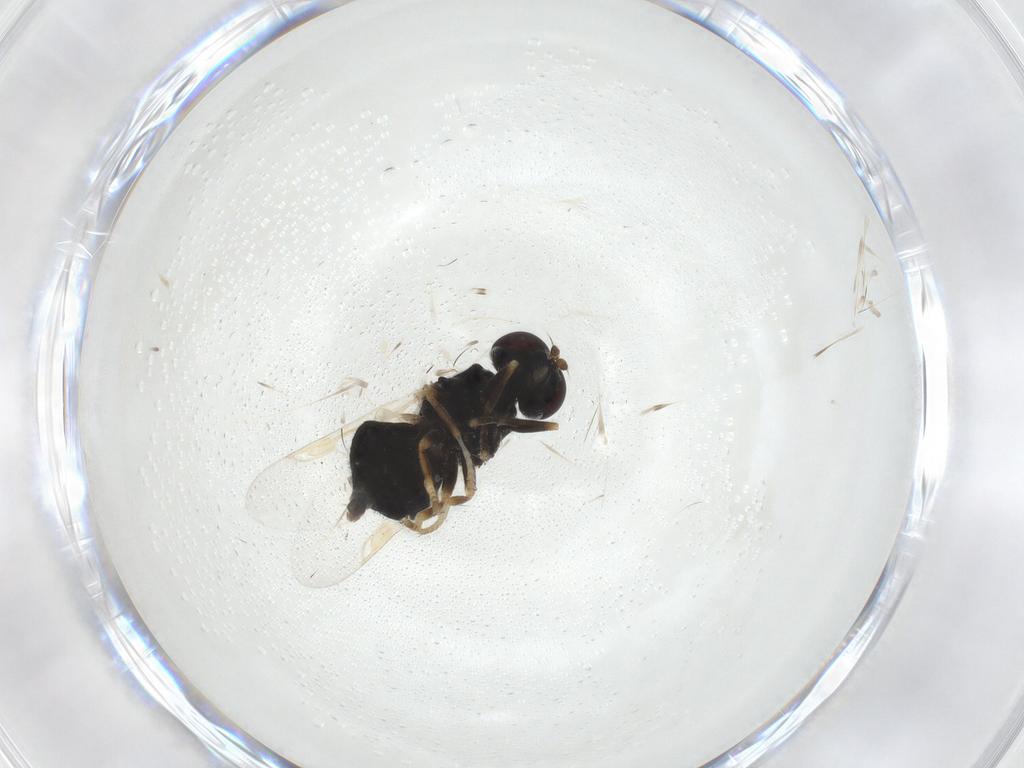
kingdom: Animalia
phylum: Arthropoda
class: Insecta
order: Diptera
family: Stratiomyidae
